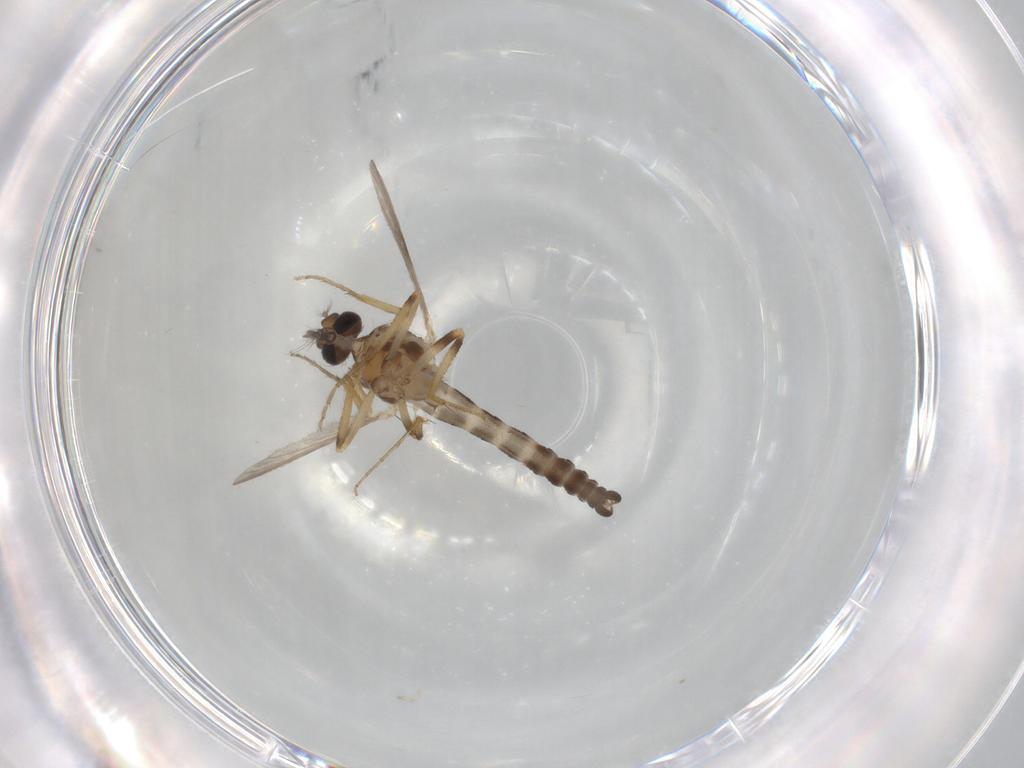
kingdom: Animalia
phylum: Arthropoda
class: Insecta
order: Diptera
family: Ceratopogonidae
